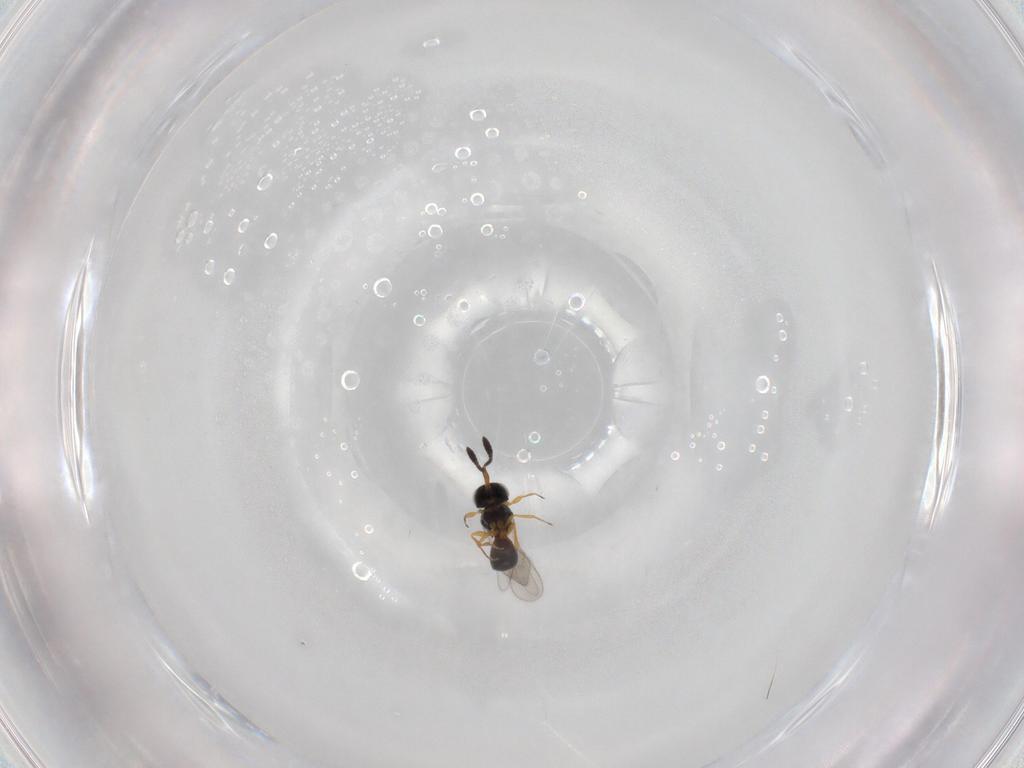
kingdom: Animalia
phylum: Arthropoda
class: Insecta
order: Hymenoptera
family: Scelionidae
